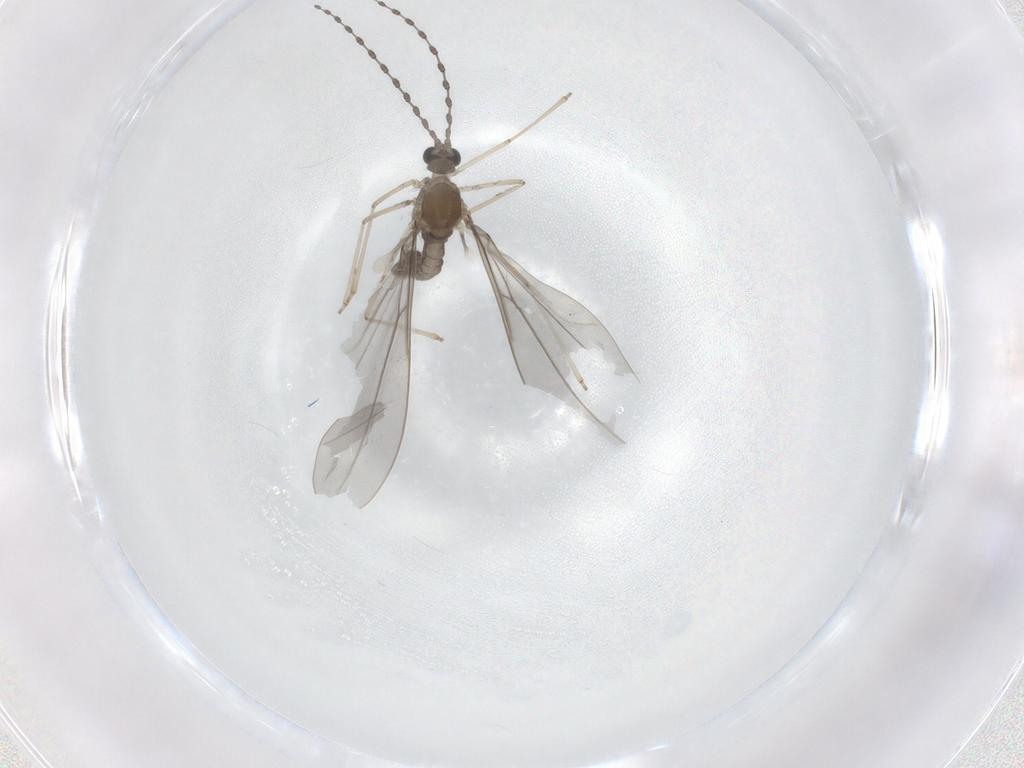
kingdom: Animalia
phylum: Arthropoda
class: Insecta
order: Diptera
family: Cecidomyiidae
